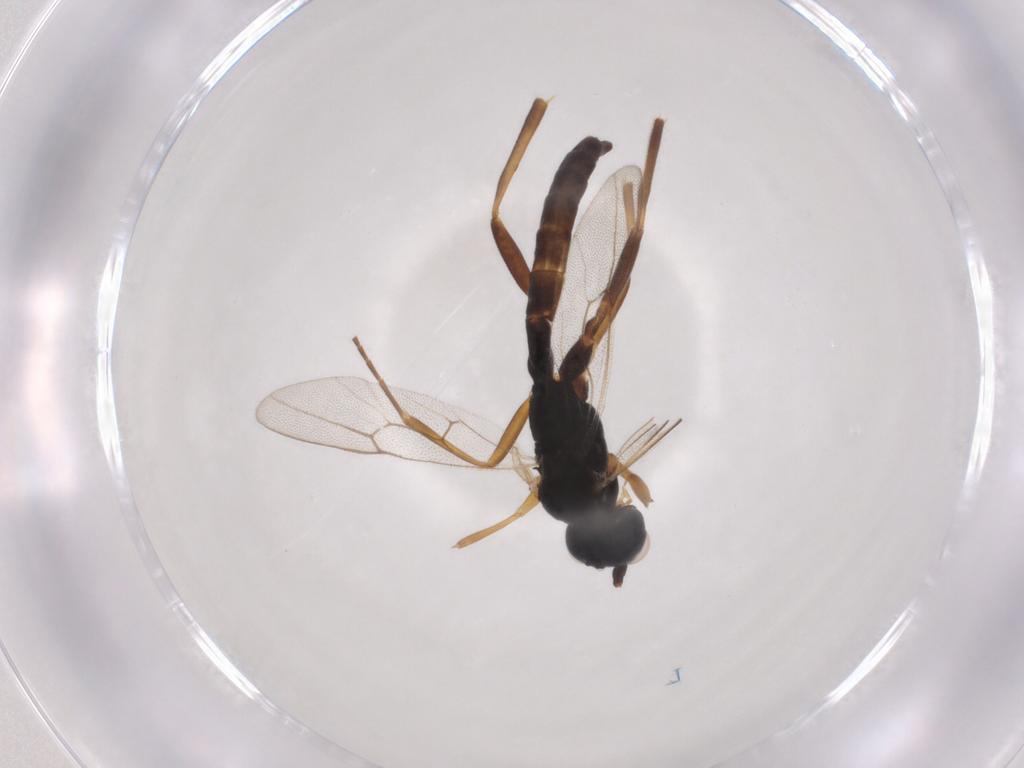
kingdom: Animalia
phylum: Arthropoda
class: Insecta
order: Hymenoptera
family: Ichneumonidae
